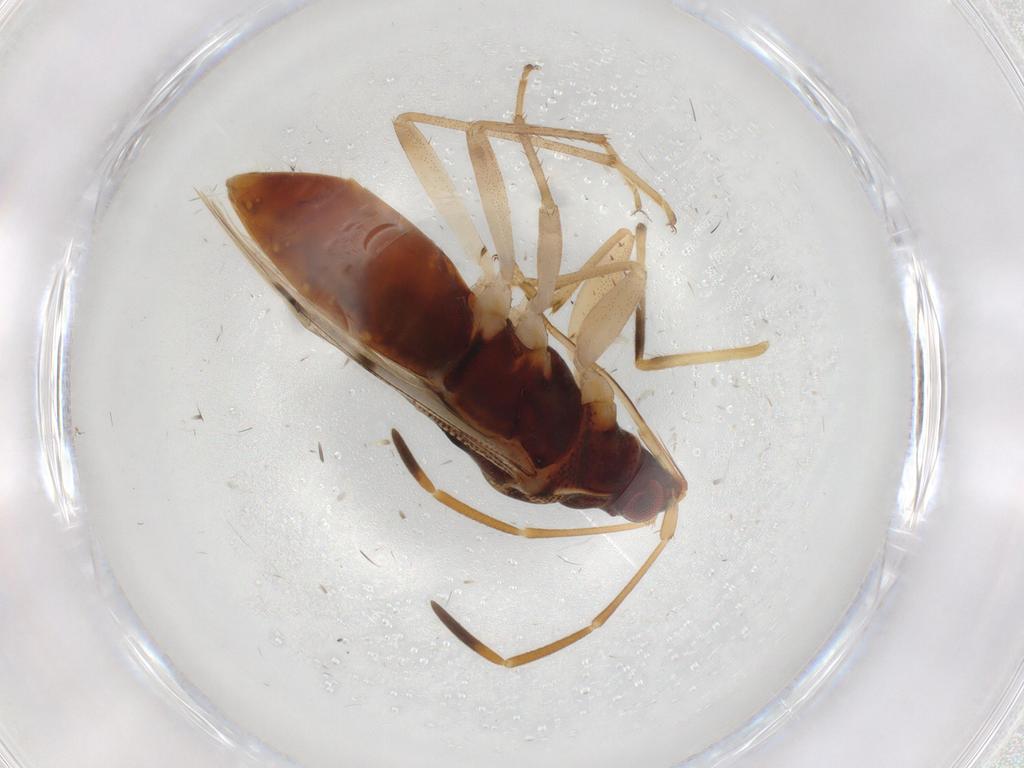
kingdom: Animalia
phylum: Arthropoda
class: Insecta
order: Hemiptera
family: Rhyparochromidae
